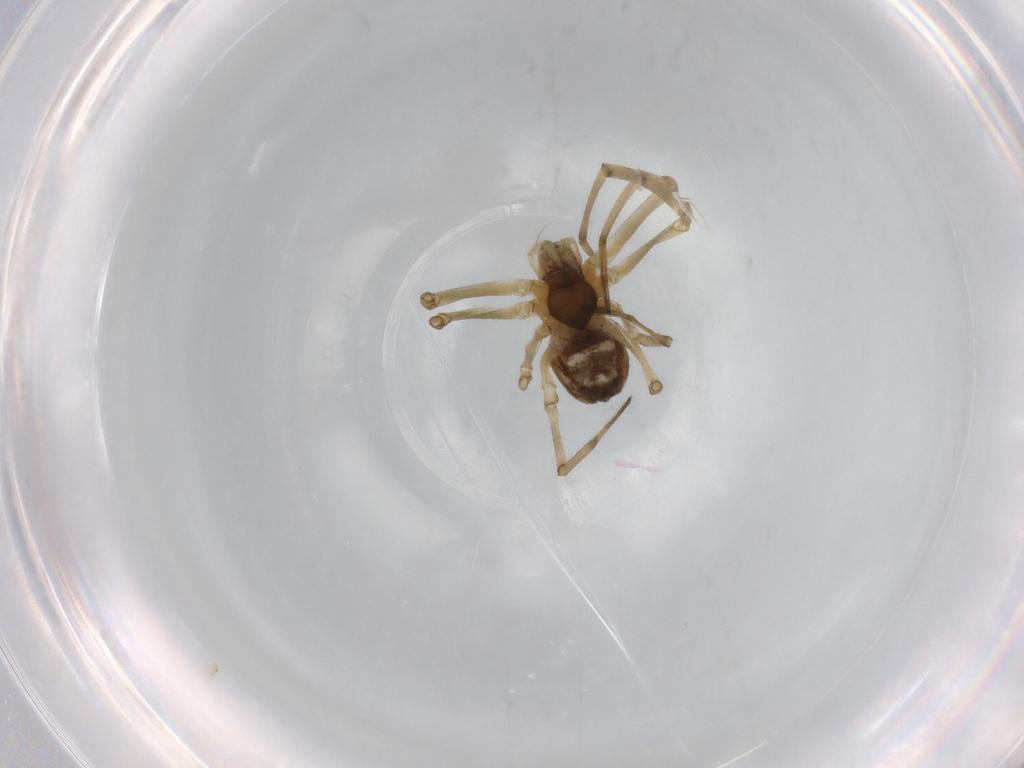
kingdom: Animalia
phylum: Arthropoda
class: Arachnida
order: Araneae
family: Linyphiidae
